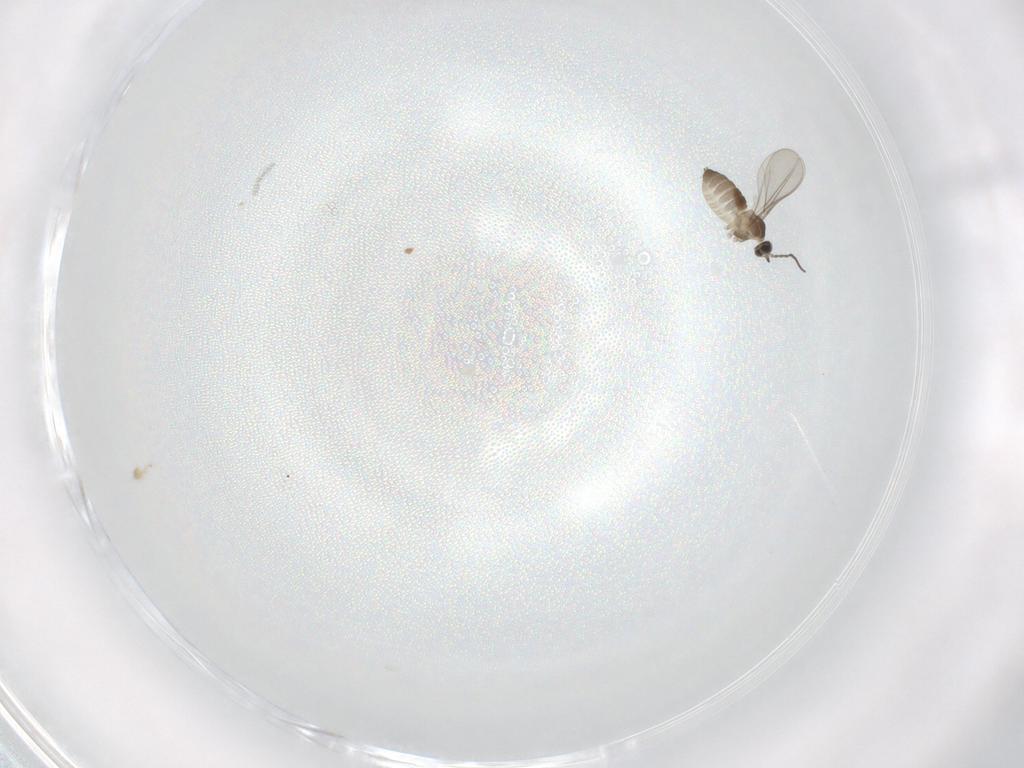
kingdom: Animalia
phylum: Arthropoda
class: Insecta
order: Diptera
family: Cecidomyiidae
